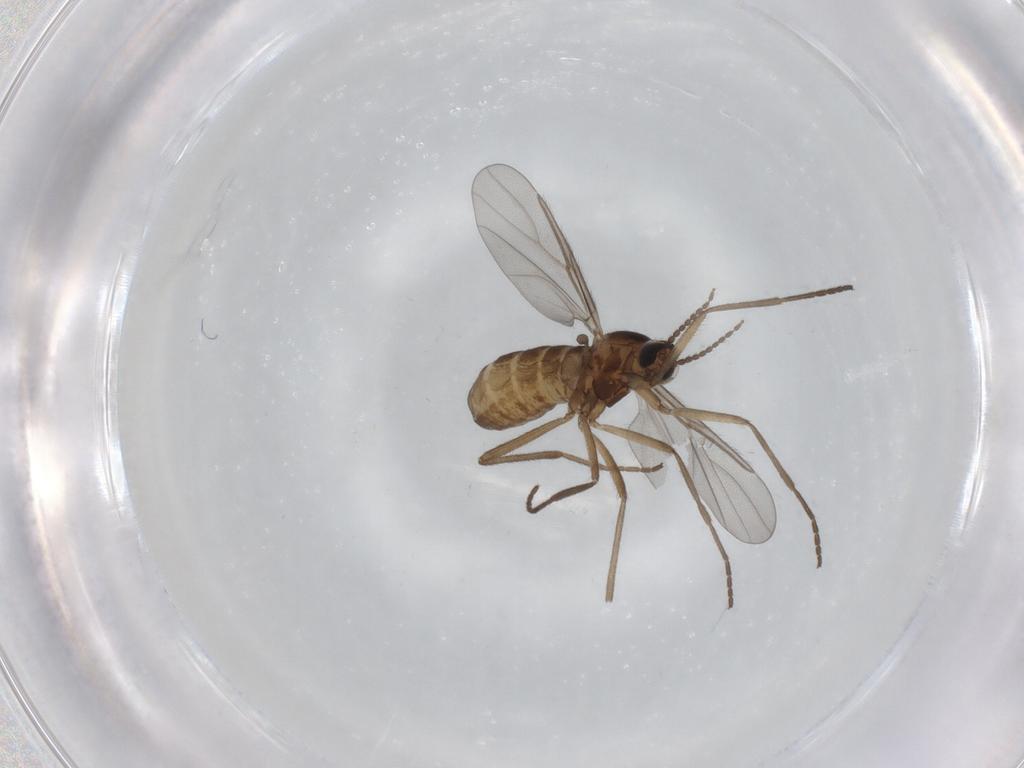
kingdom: Animalia
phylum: Arthropoda
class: Insecta
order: Diptera
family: Cecidomyiidae
